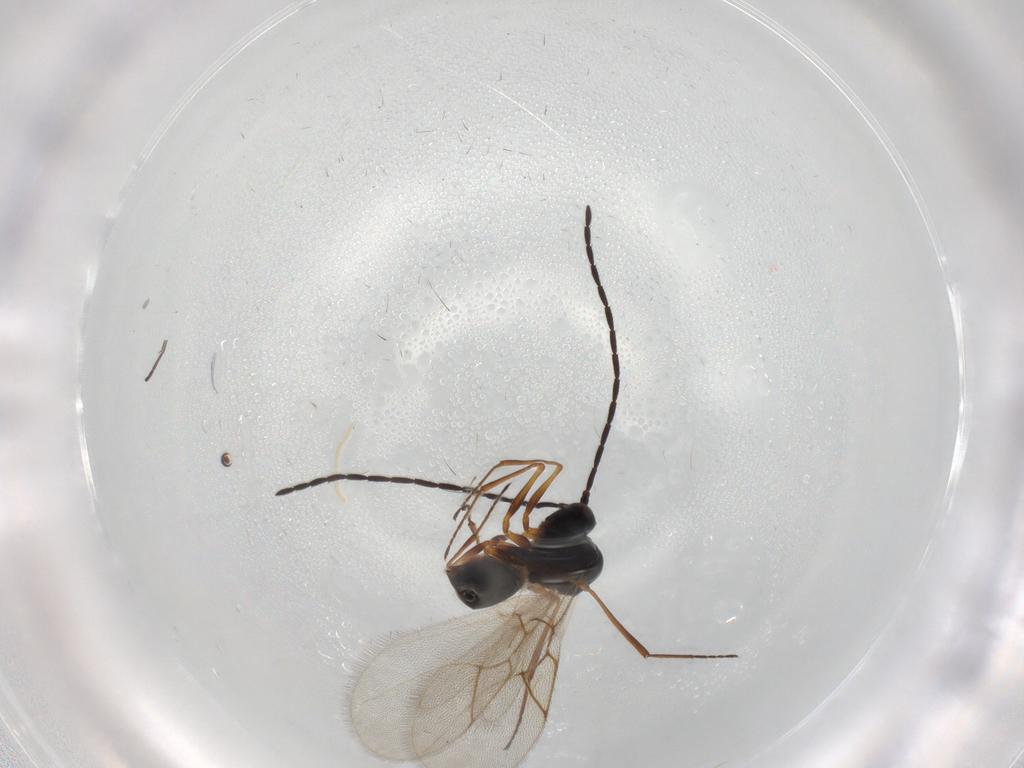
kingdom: Animalia
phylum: Arthropoda
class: Insecta
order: Hymenoptera
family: Figitidae
